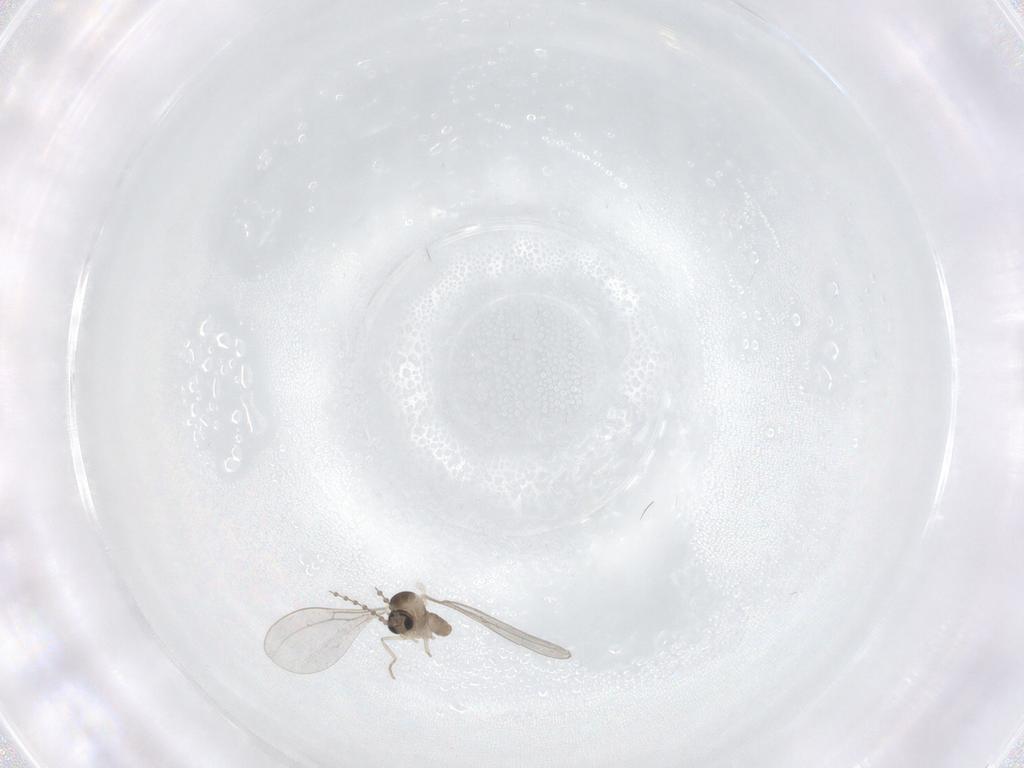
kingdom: Animalia
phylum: Arthropoda
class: Insecta
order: Diptera
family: Cecidomyiidae
